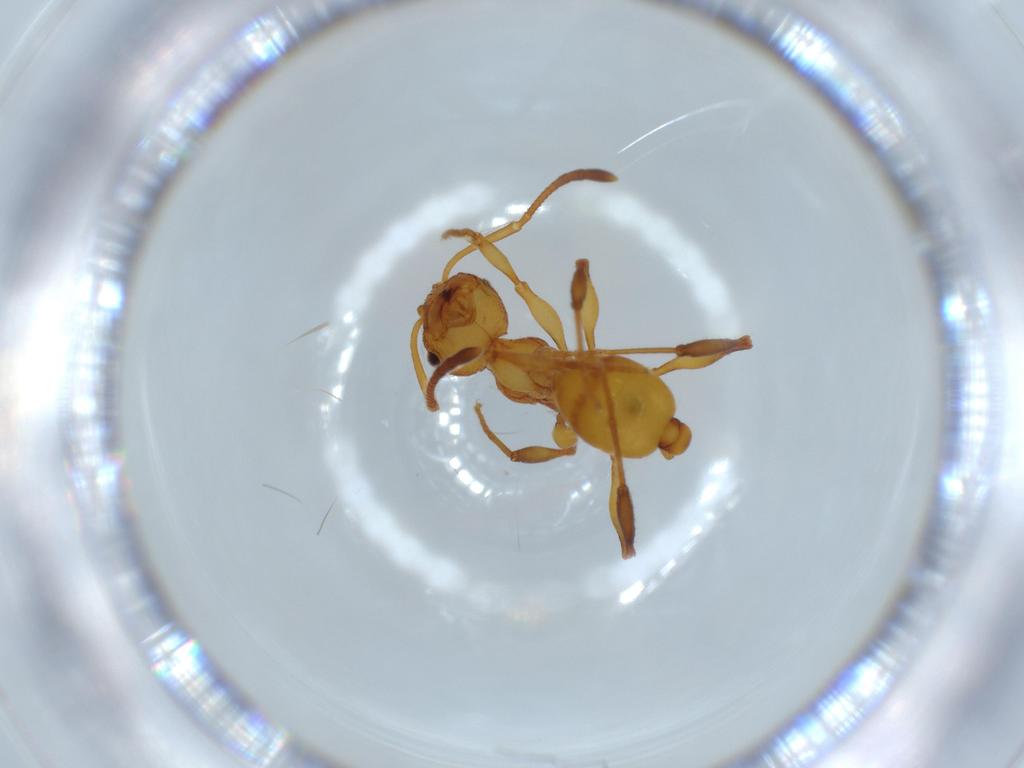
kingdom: Animalia
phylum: Arthropoda
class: Insecta
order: Hymenoptera
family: Formicidae
